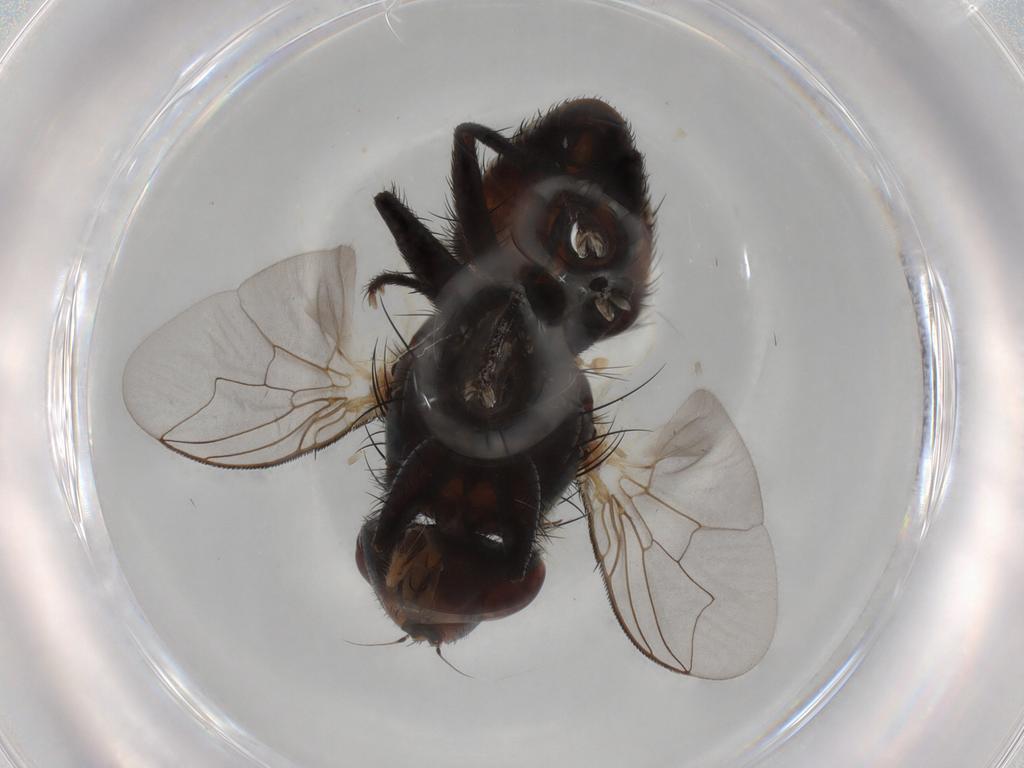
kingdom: Animalia
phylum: Arthropoda
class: Insecta
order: Diptera
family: Sarcophagidae
